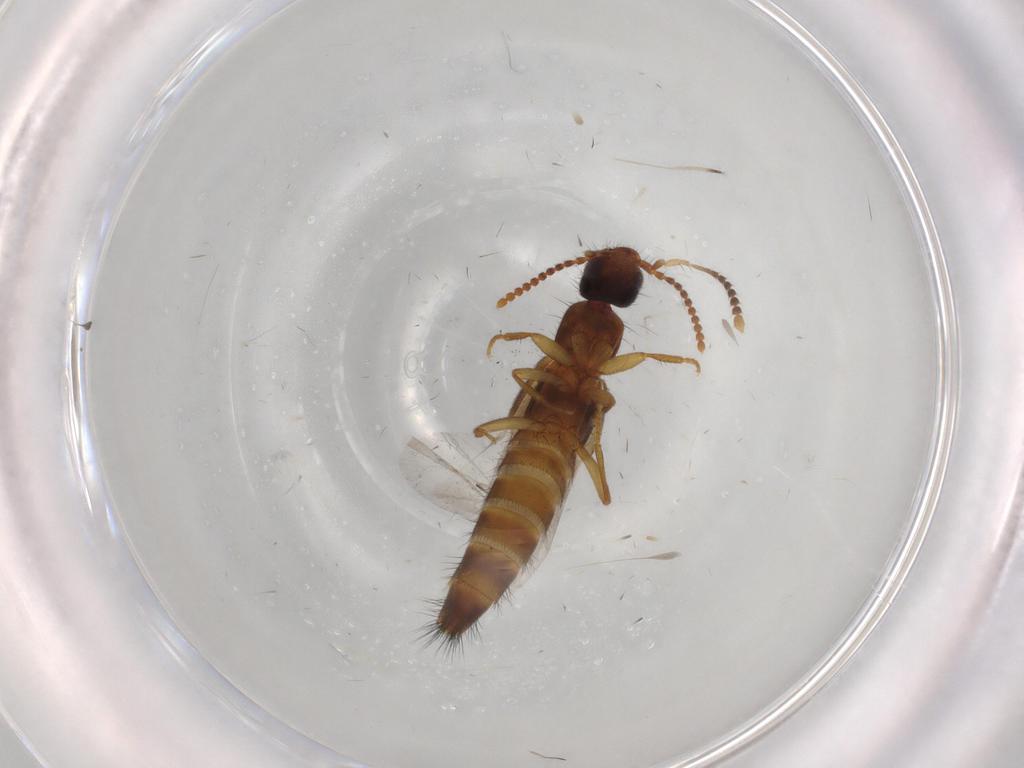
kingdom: Animalia
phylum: Arthropoda
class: Insecta
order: Coleoptera
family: Staphylinidae
